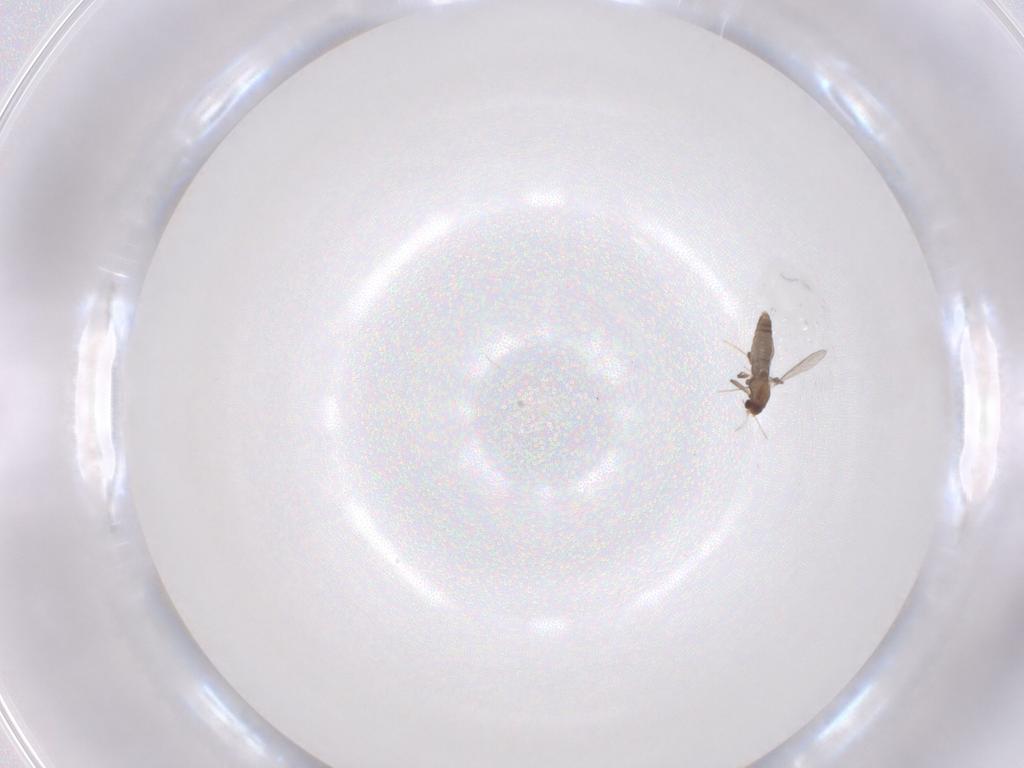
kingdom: Animalia
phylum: Arthropoda
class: Insecta
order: Diptera
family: Chironomidae
